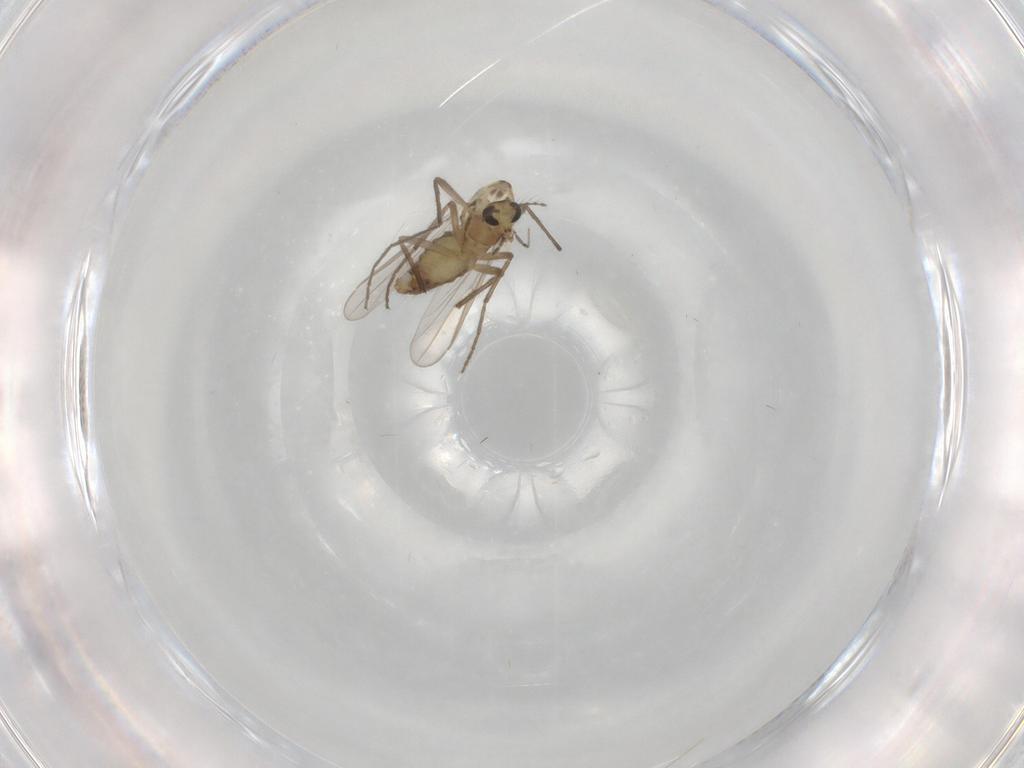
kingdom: Animalia
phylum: Arthropoda
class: Insecta
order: Diptera
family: Chironomidae
